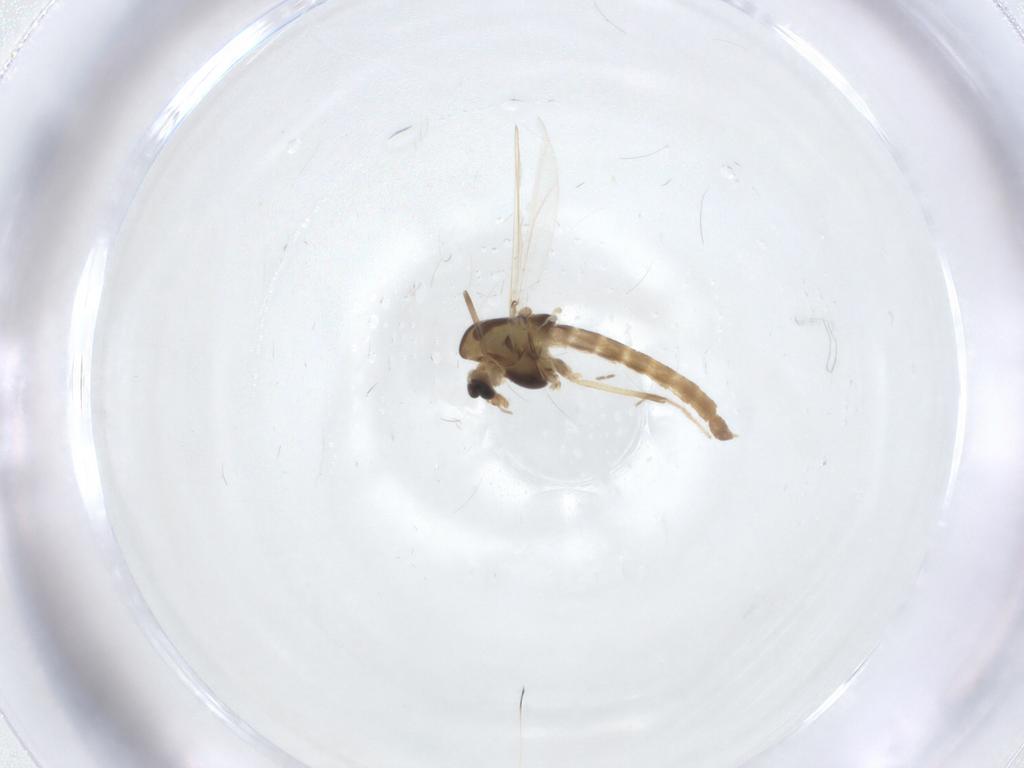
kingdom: Animalia
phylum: Arthropoda
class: Insecta
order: Diptera
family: Chironomidae
